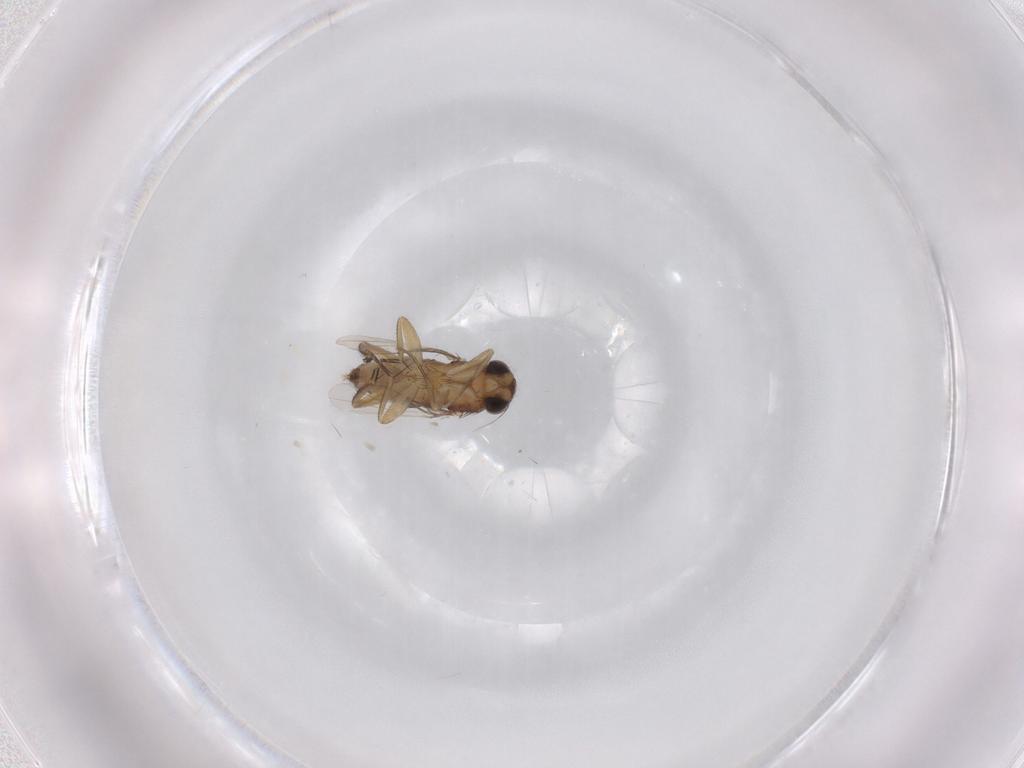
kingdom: Animalia
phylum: Arthropoda
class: Insecta
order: Diptera
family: Phoridae
